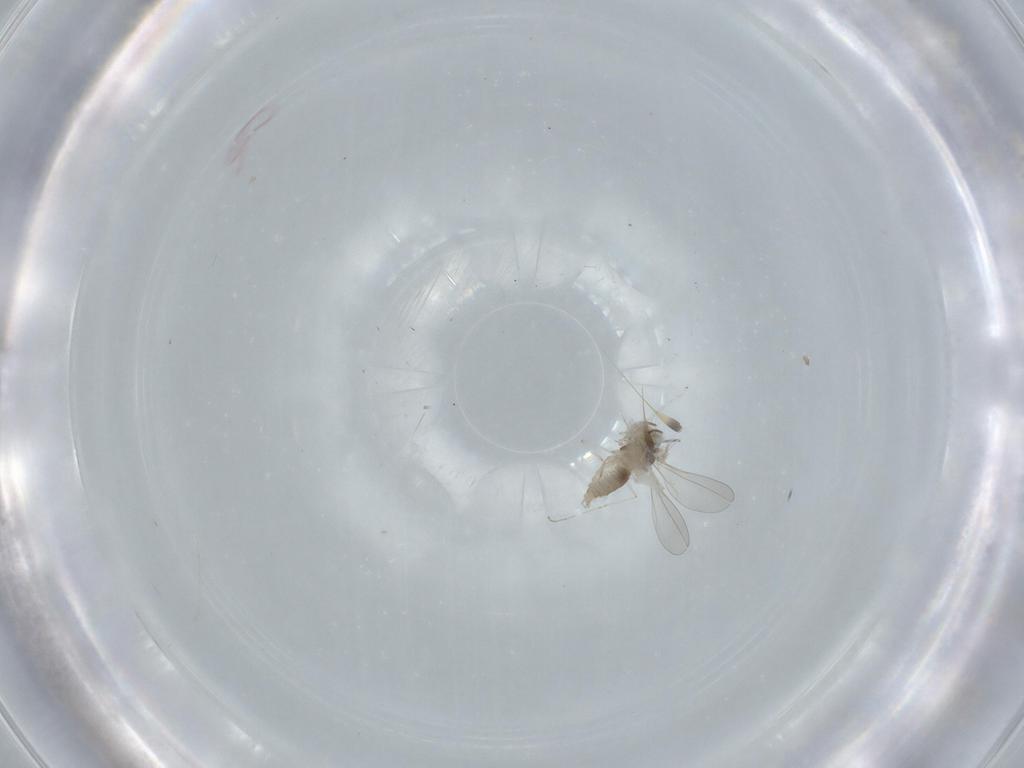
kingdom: Animalia
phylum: Arthropoda
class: Insecta
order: Diptera
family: Cecidomyiidae
